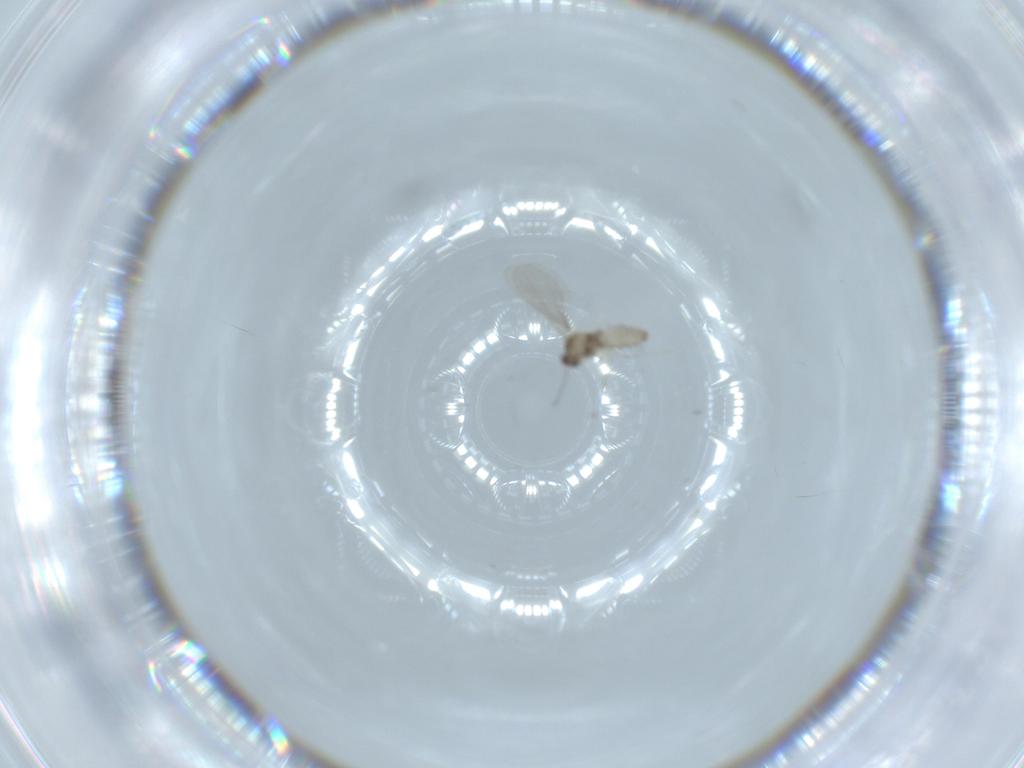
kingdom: Animalia
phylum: Arthropoda
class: Insecta
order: Diptera
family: Cecidomyiidae
